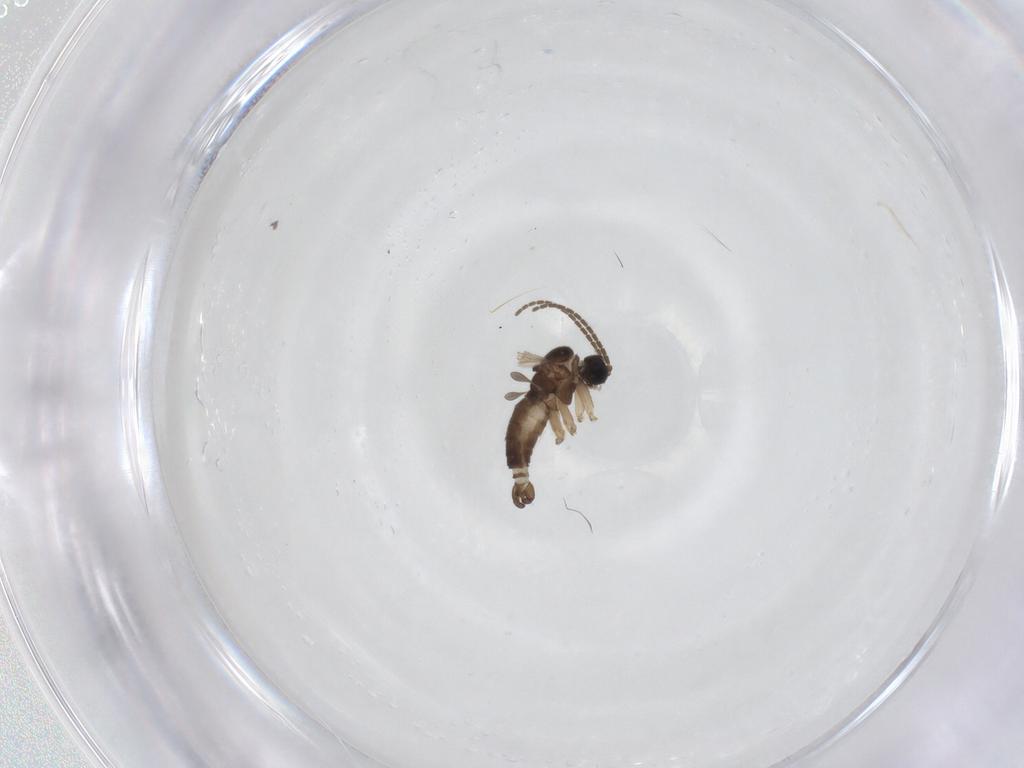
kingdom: Animalia
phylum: Arthropoda
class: Insecta
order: Diptera
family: Sciaridae
